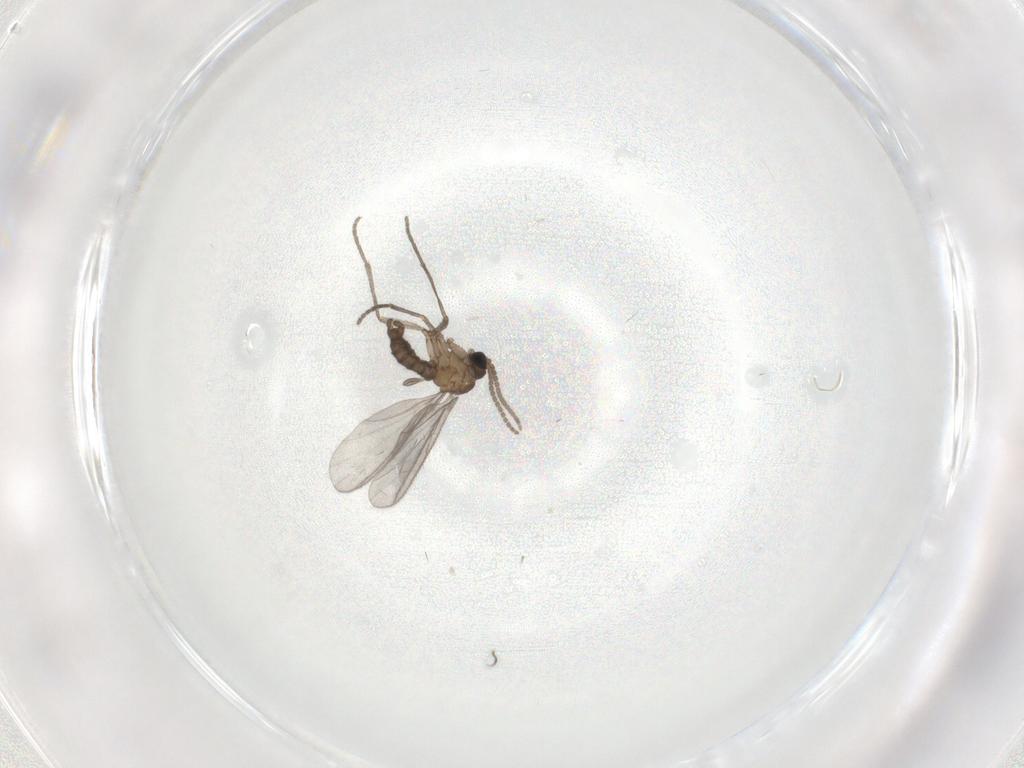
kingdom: Animalia
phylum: Arthropoda
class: Insecta
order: Diptera
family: Sciaridae
